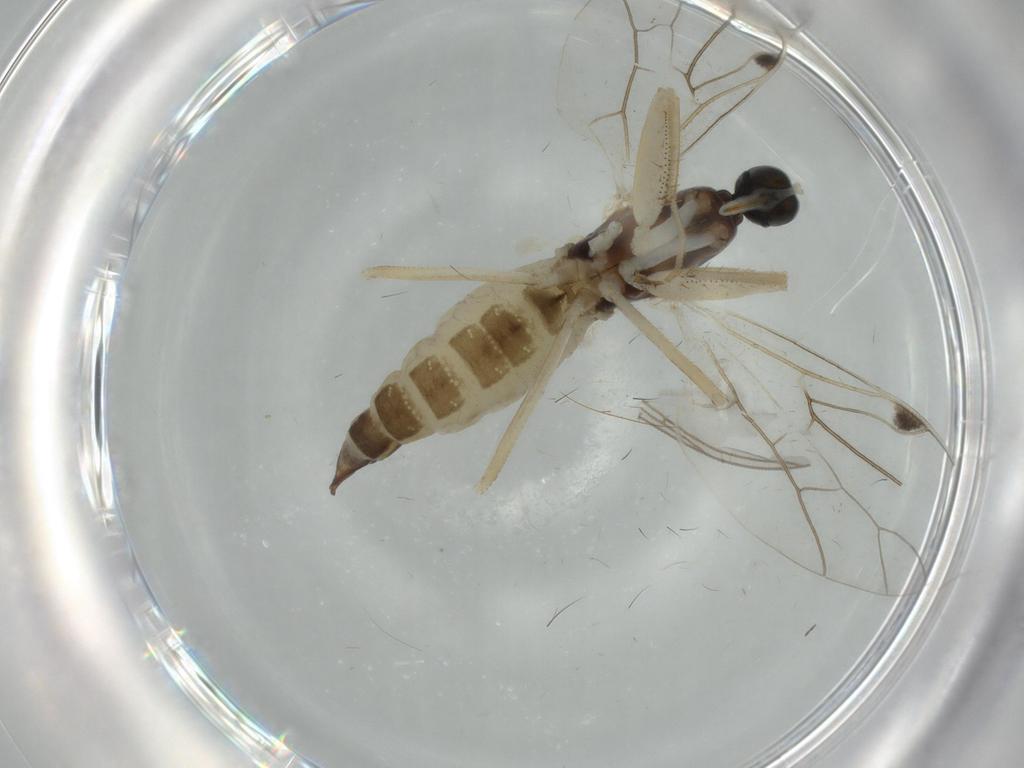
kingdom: Animalia
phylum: Arthropoda
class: Insecta
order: Diptera
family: Empididae
